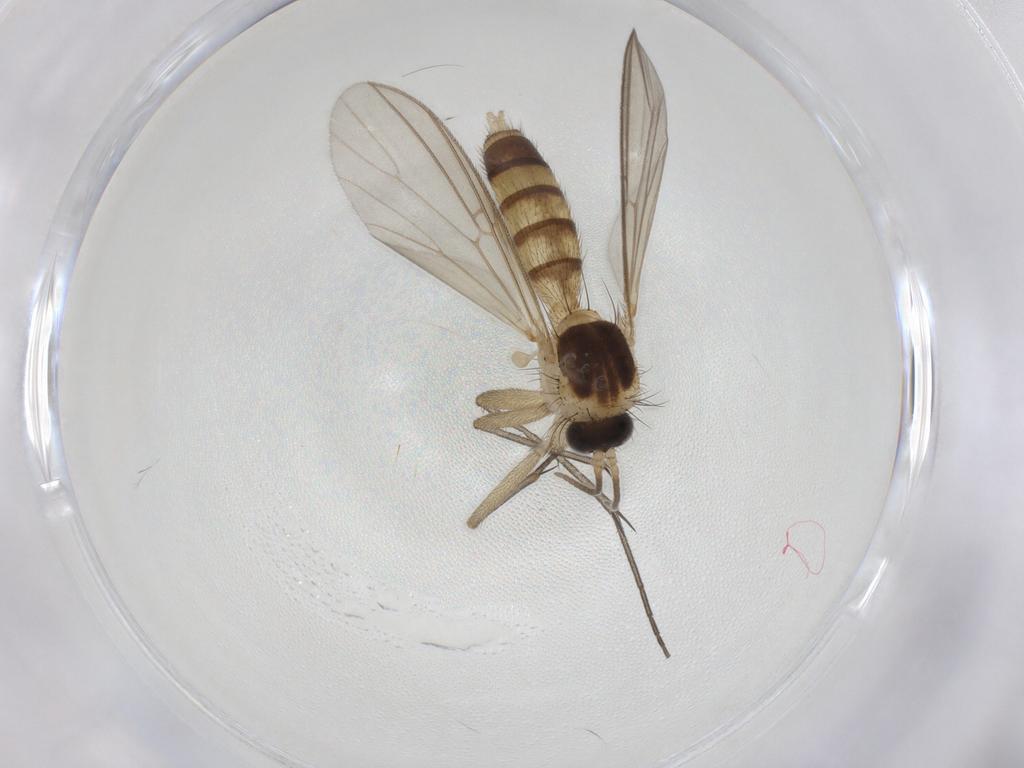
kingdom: Animalia
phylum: Arthropoda
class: Insecta
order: Diptera
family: Mycetophilidae
